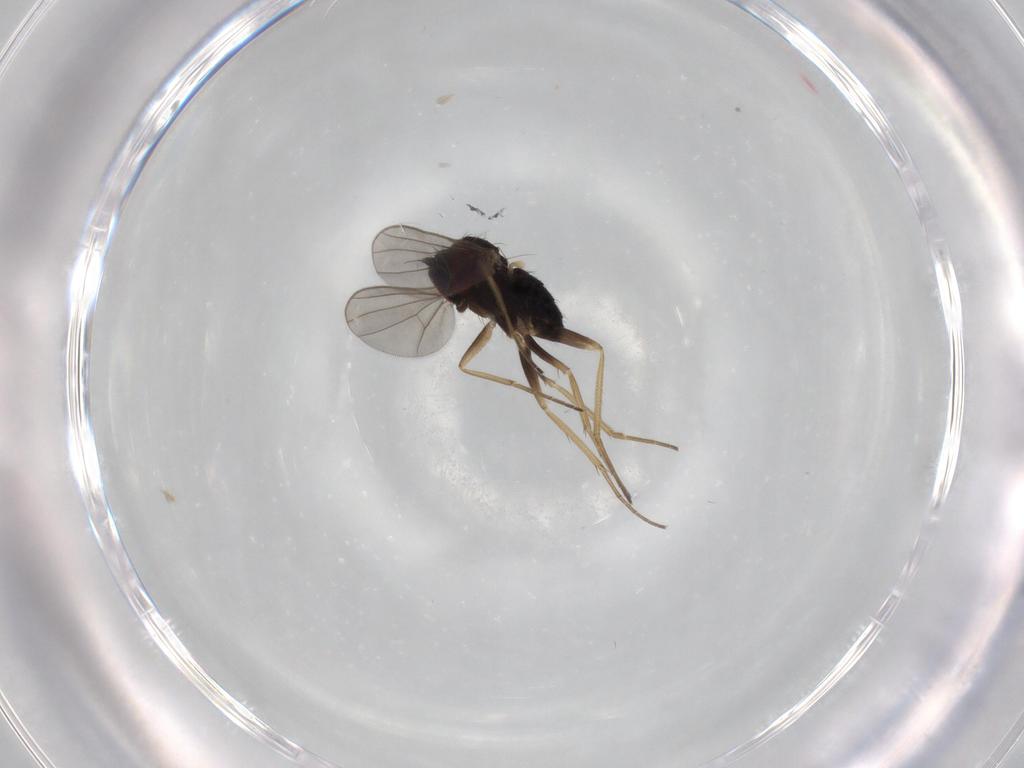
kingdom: Animalia
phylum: Arthropoda
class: Insecta
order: Diptera
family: Dolichopodidae
